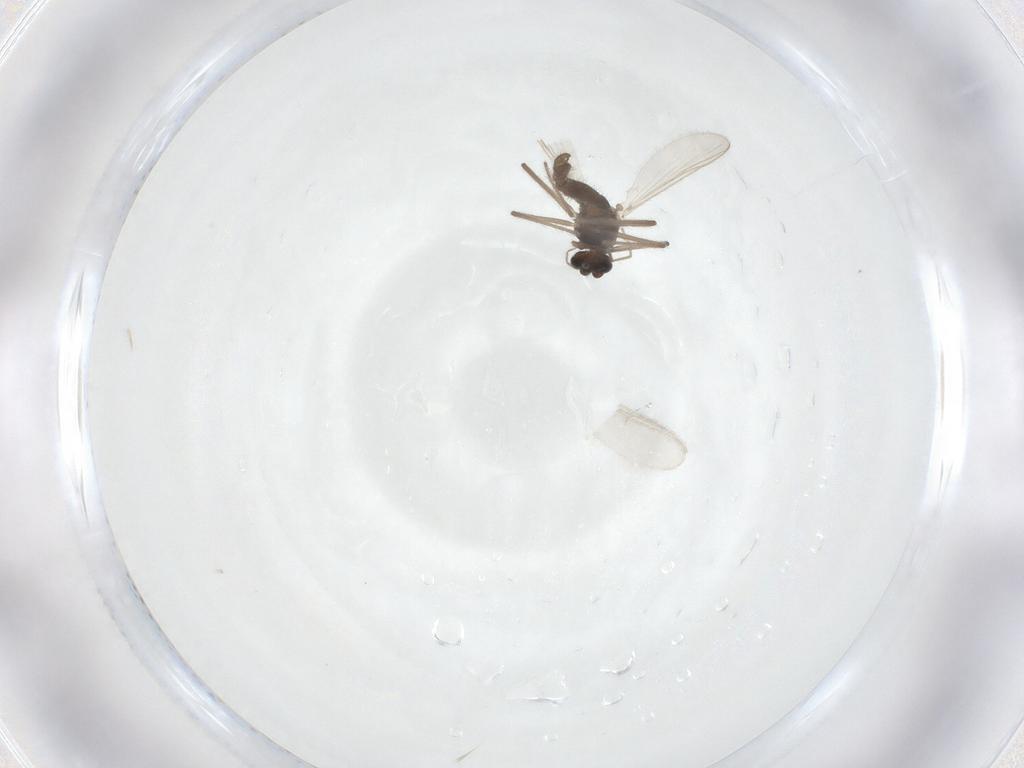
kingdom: Animalia
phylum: Arthropoda
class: Insecta
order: Diptera
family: Chironomidae
